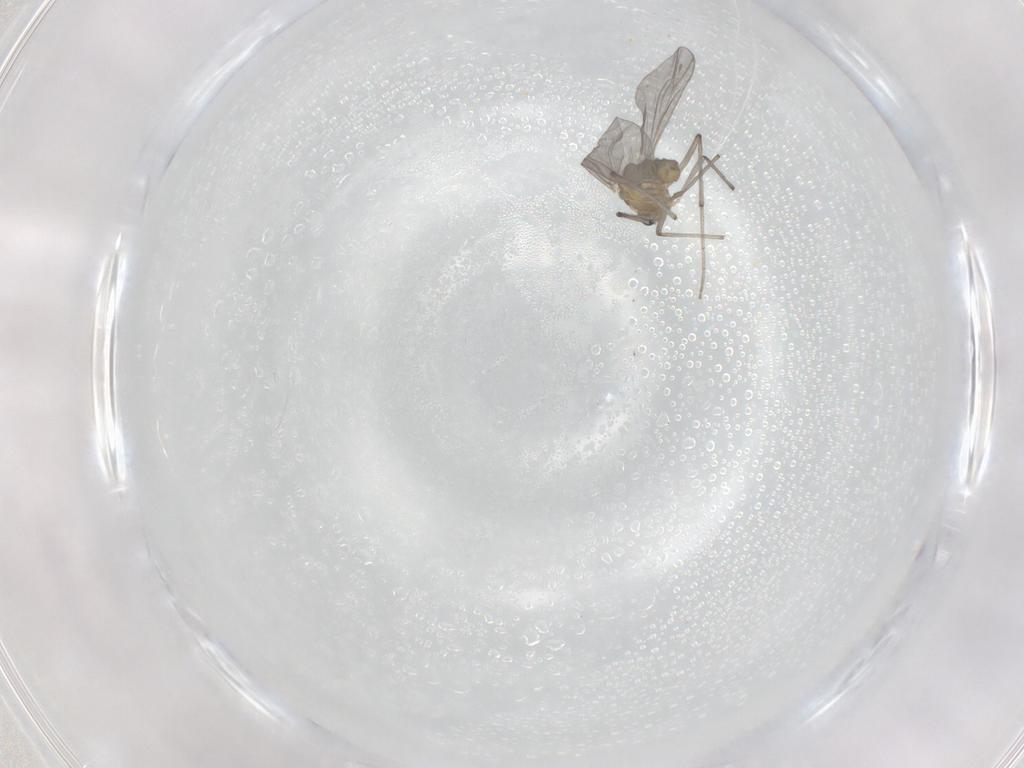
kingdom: Animalia
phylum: Arthropoda
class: Insecta
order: Diptera
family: Chironomidae
